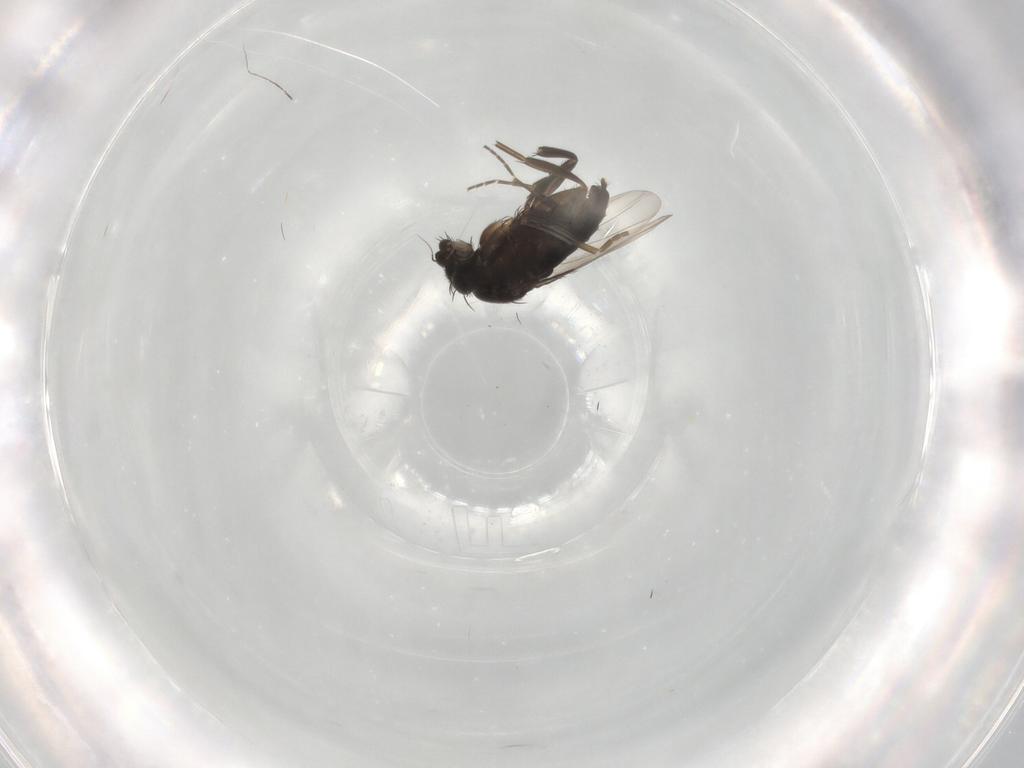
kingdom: Animalia
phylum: Arthropoda
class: Insecta
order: Diptera
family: Phoridae
